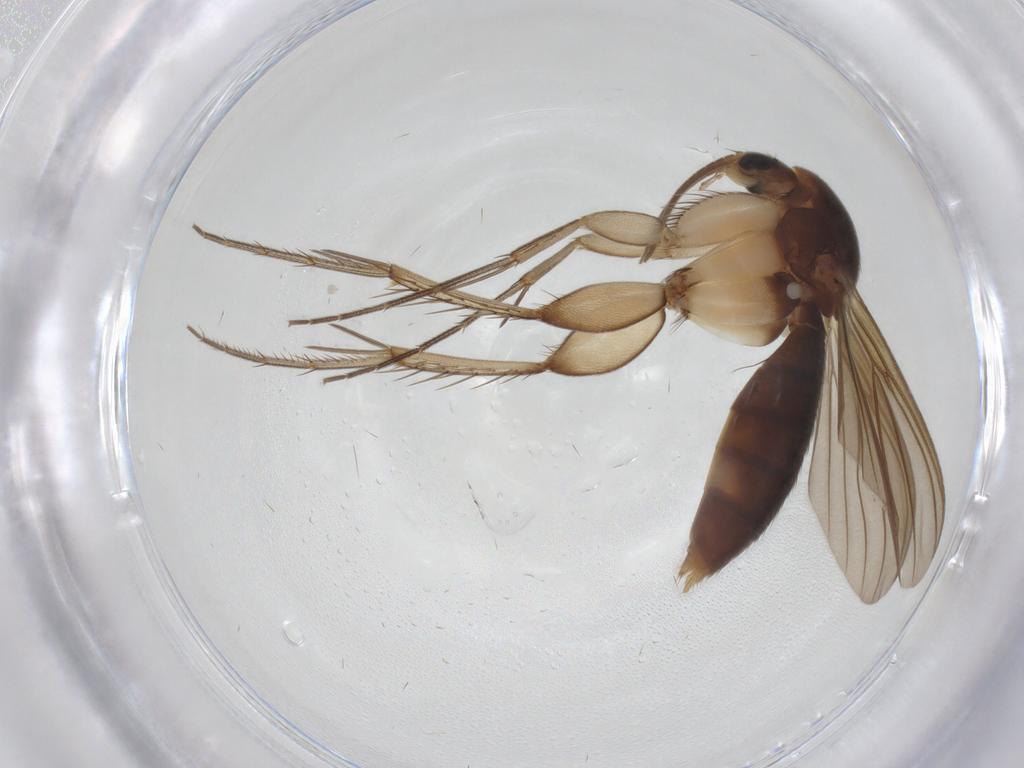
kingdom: Animalia
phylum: Arthropoda
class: Insecta
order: Diptera
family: Mycetophilidae
